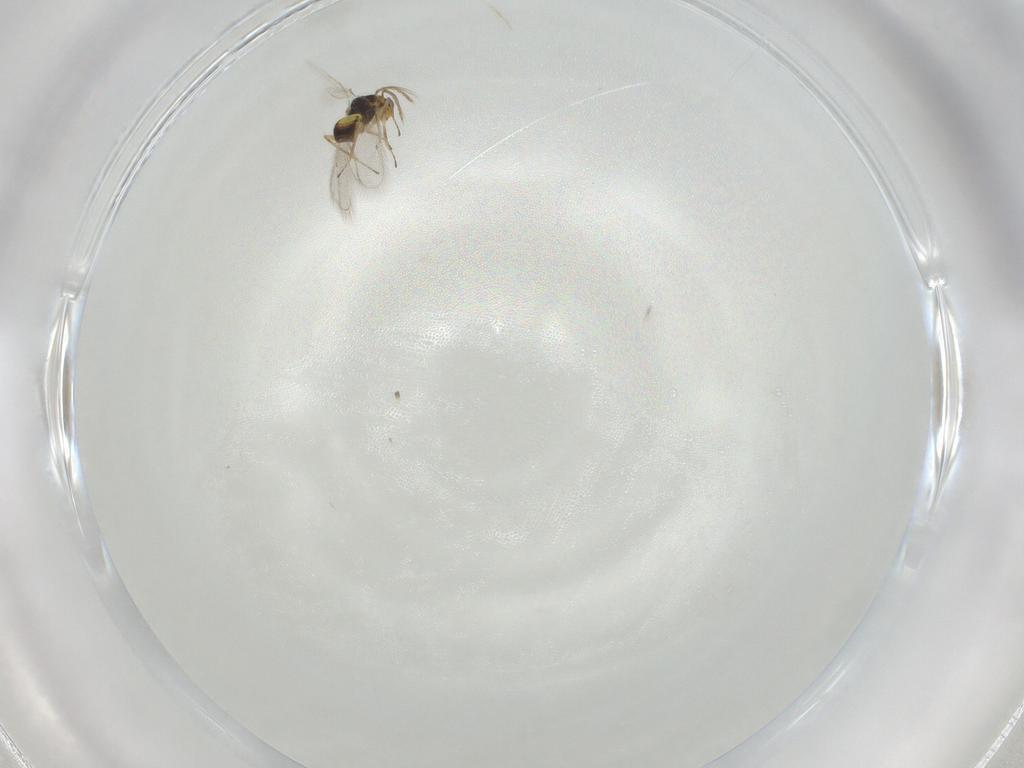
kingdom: Animalia
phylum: Arthropoda
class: Insecta
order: Hymenoptera
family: Eulophidae
